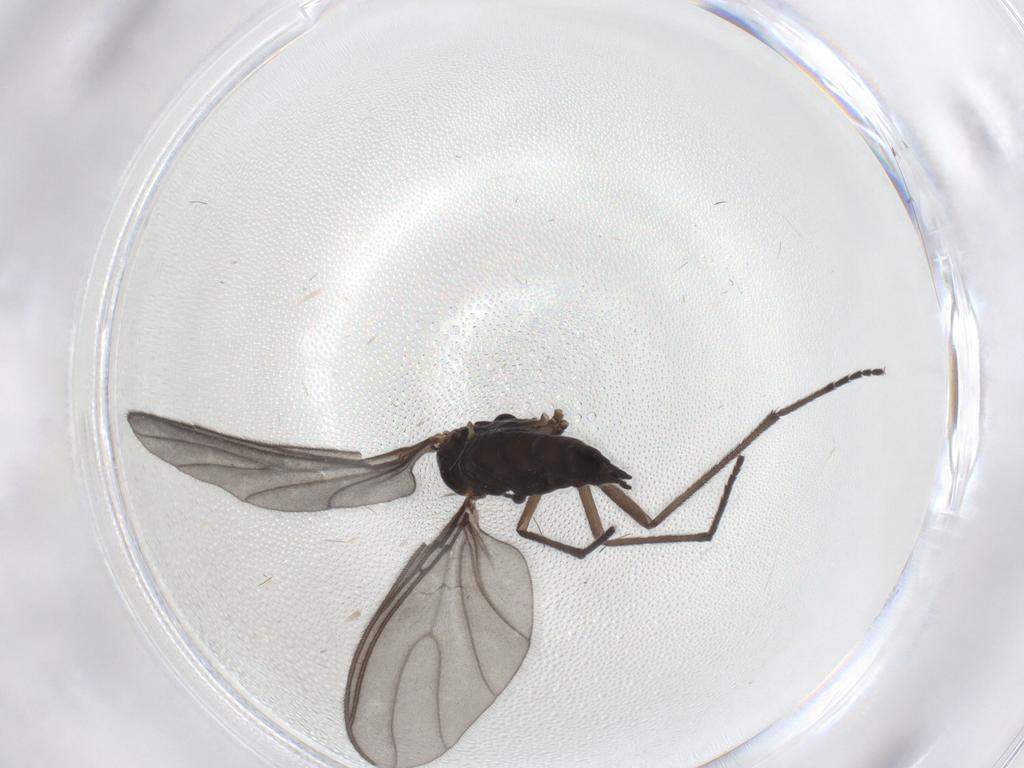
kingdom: Animalia
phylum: Arthropoda
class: Insecta
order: Diptera
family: Sciaridae
